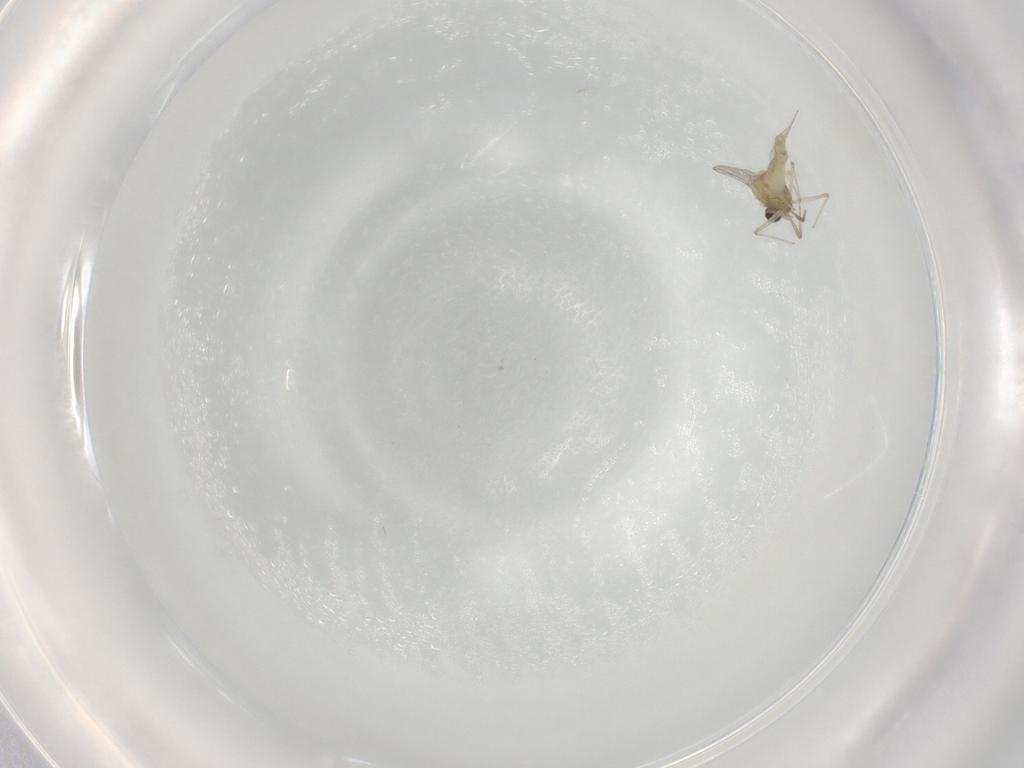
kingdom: Animalia
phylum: Arthropoda
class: Insecta
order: Diptera
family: Chironomidae
